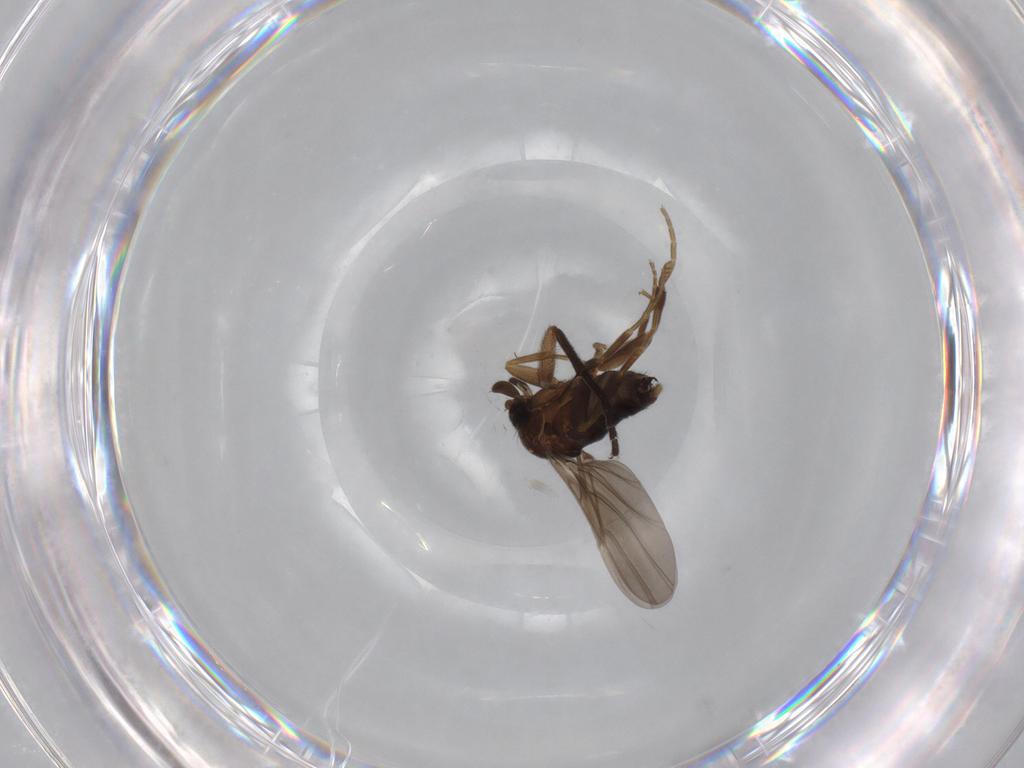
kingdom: Animalia
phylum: Arthropoda
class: Insecta
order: Diptera
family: Phoridae
